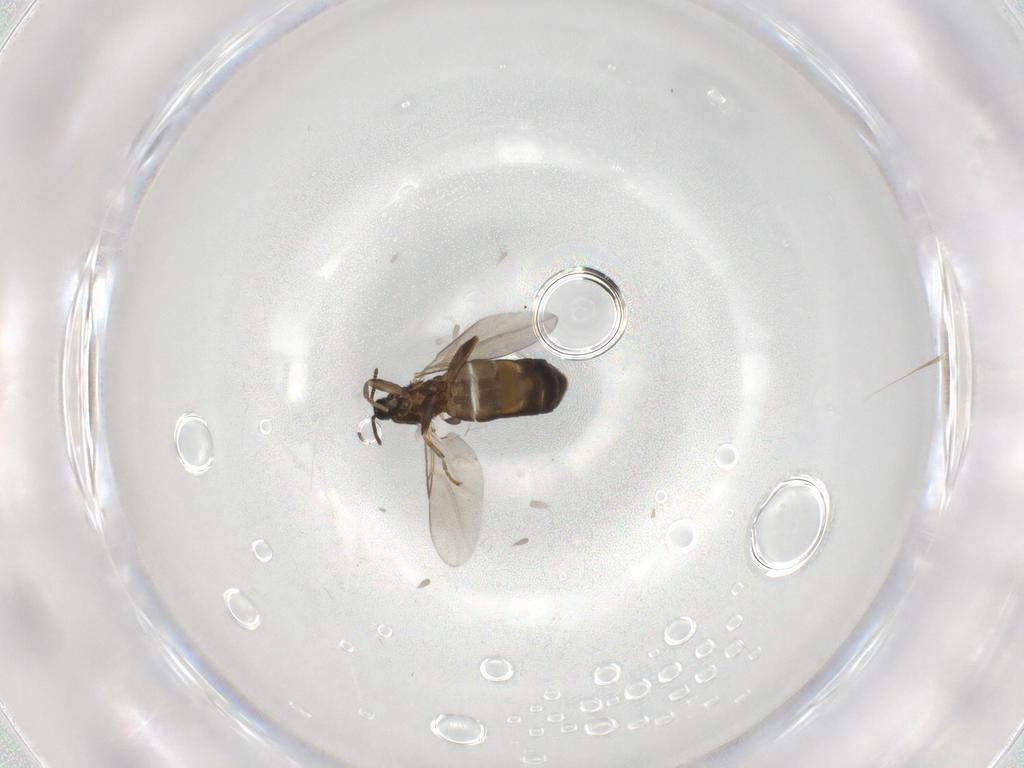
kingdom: Animalia
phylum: Arthropoda
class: Insecta
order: Diptera
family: Scatopsidae
